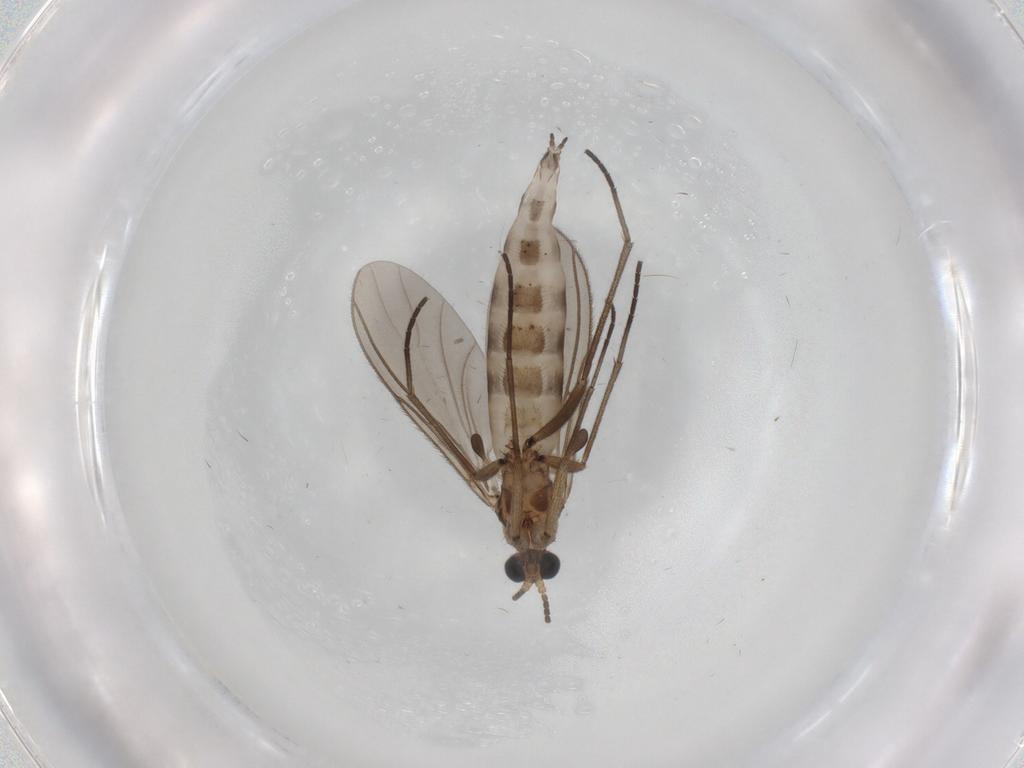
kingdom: Animalia
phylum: Arthropoda
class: Insecta
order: Diptera
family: Sciaridae
